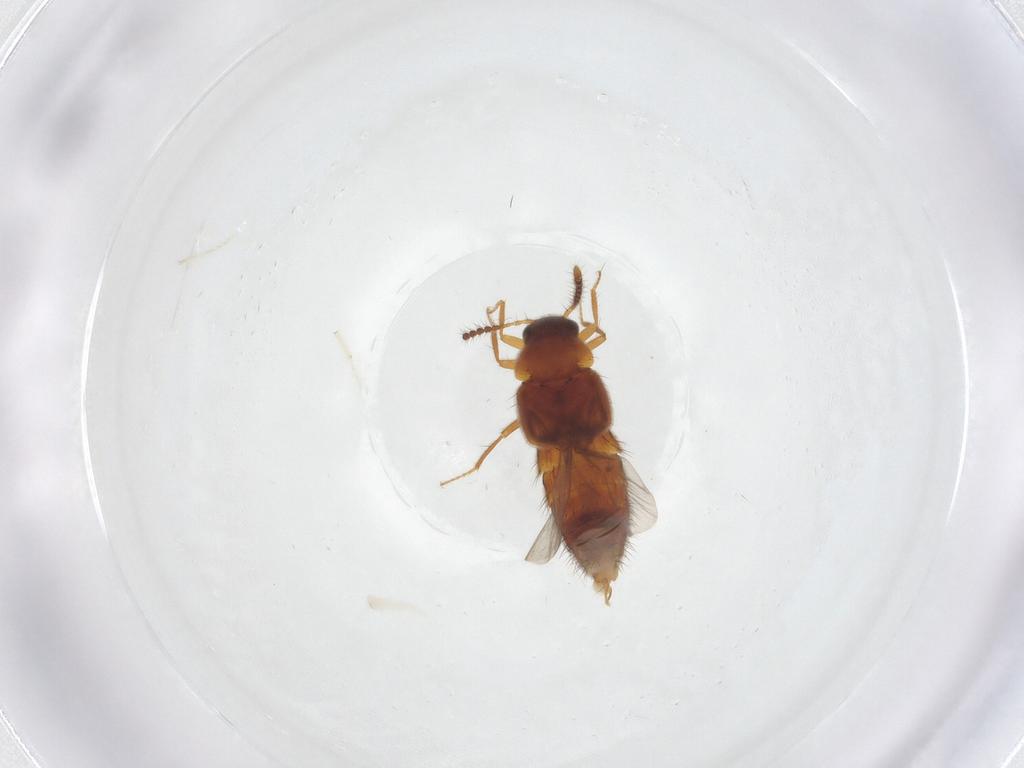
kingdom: Animalia
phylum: Arthropoda
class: Insecta
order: Coleoptera
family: Staphylinidae
